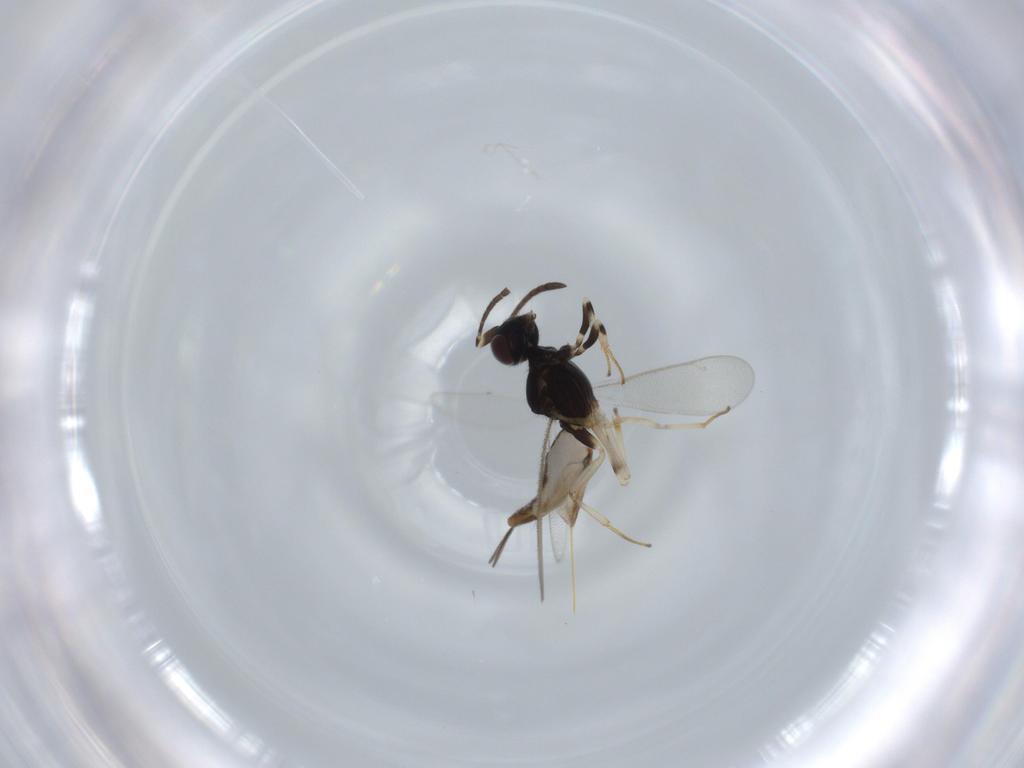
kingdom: Animalia
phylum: Arthropoda
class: Insecta
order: Hymenoptera
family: Eupelmidae
